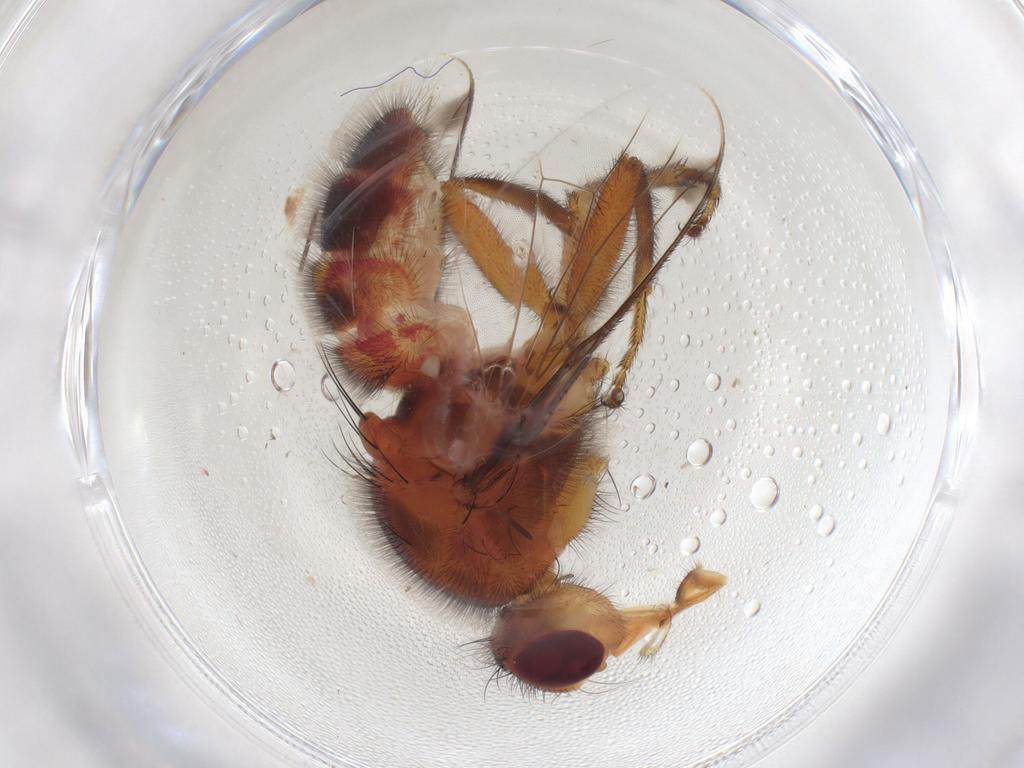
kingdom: Animalia
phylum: Arthropoda
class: Insecta
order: Diptera
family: Richardiidae
